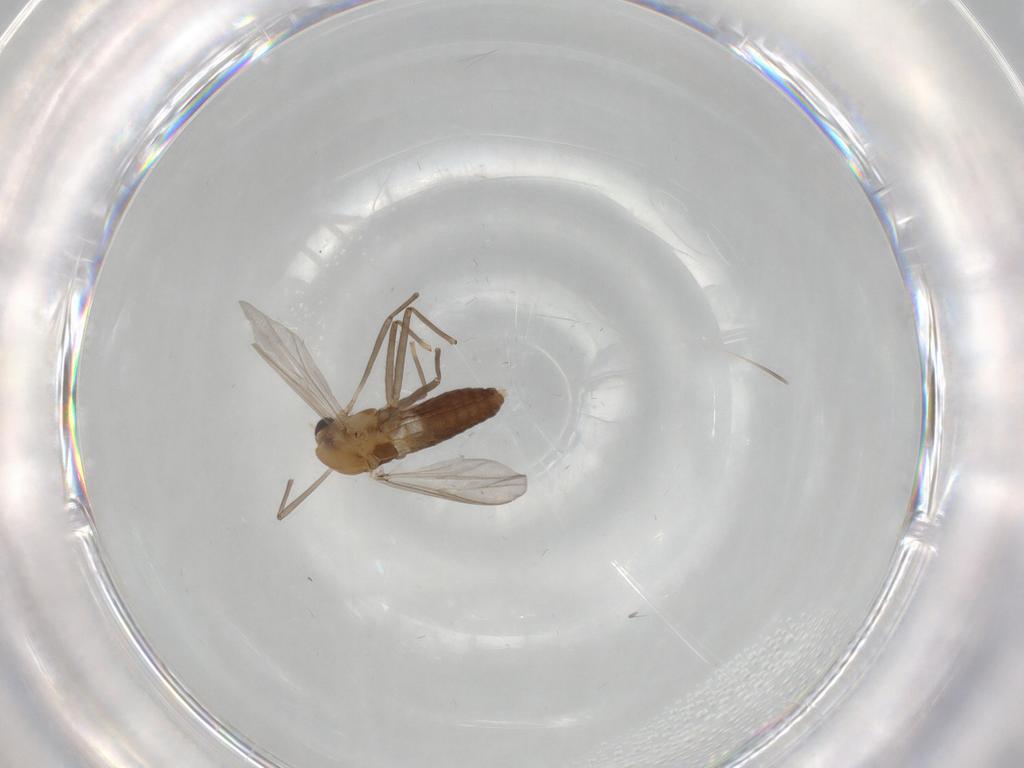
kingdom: Animalia
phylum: Arthropoda
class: Insecta
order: Diptera
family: Chironomidae
